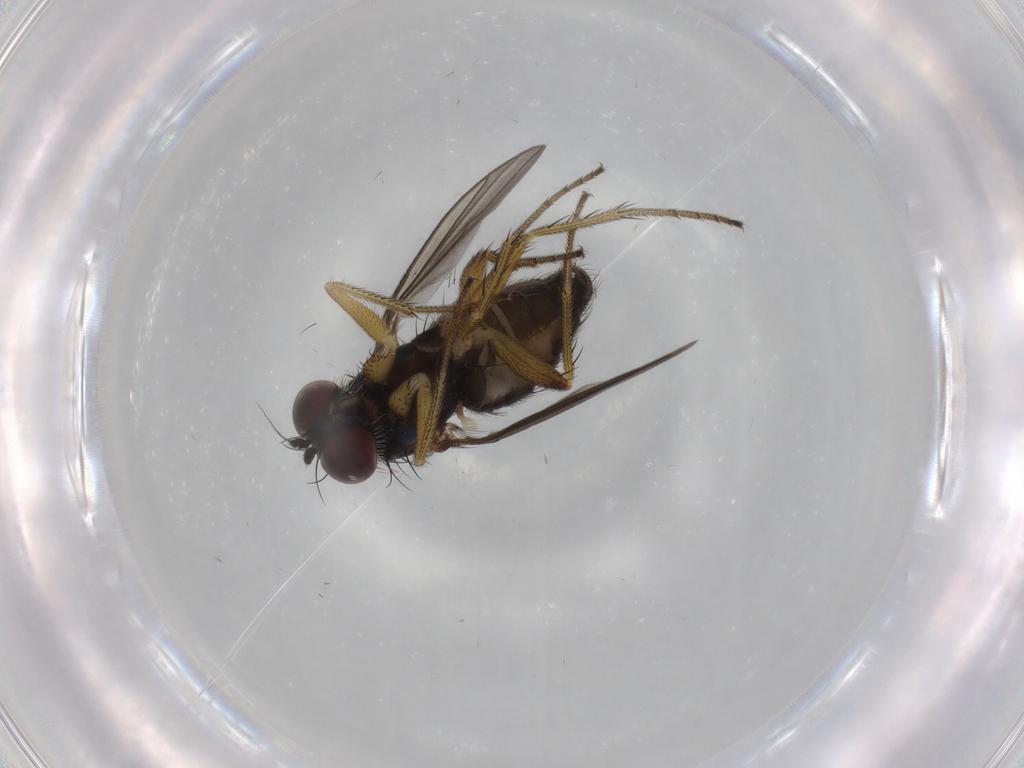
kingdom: Animalia
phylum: Arthropoda
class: Insecta
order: Diptera
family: Dolichopodidae
